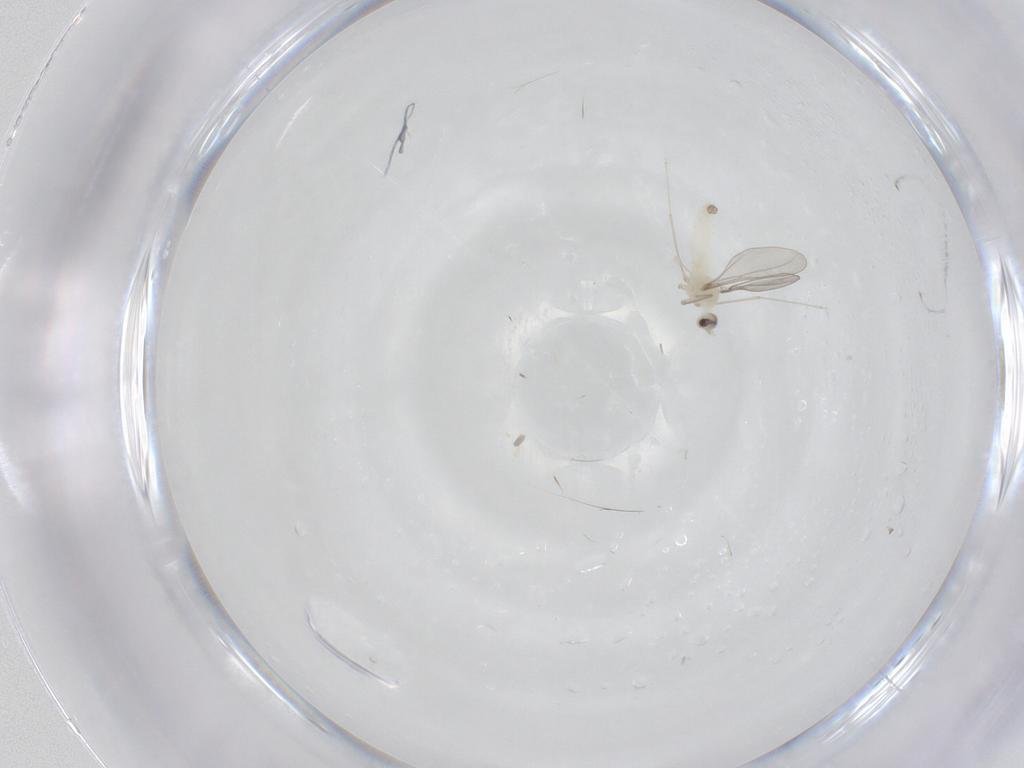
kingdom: Animalia
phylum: Arthropoda
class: Insecta
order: Diptera
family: Cecidomyiidae
